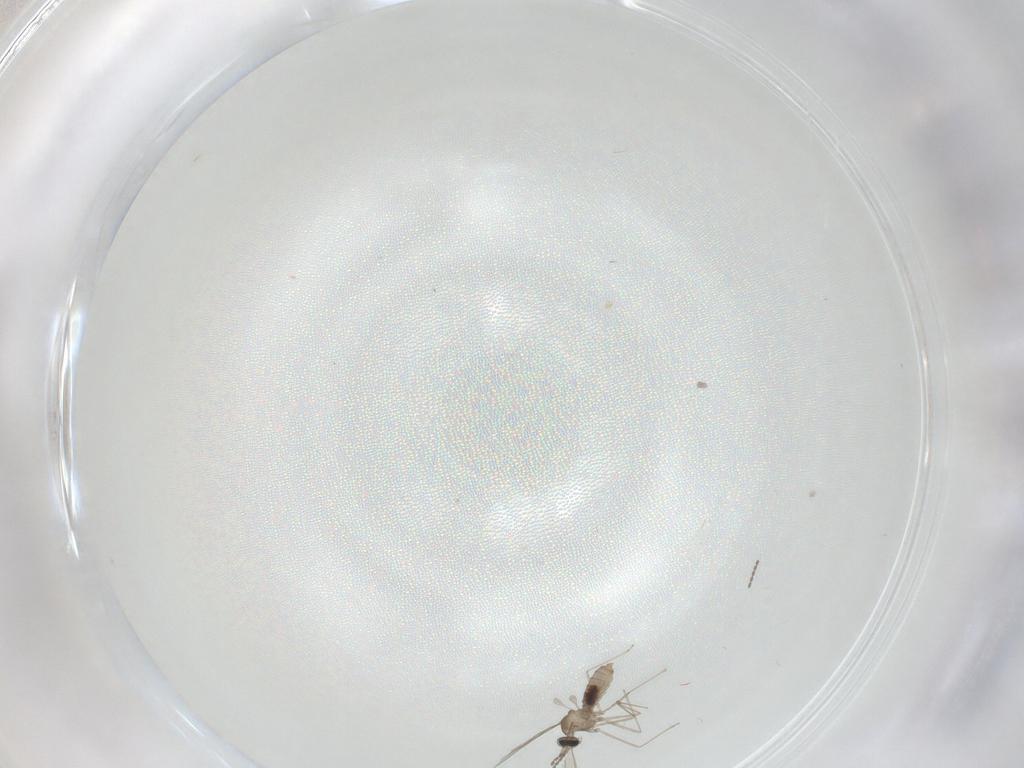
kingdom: Animalia
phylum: Arthropoda
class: Insecta
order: Diptera
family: Cecidomyiidae
